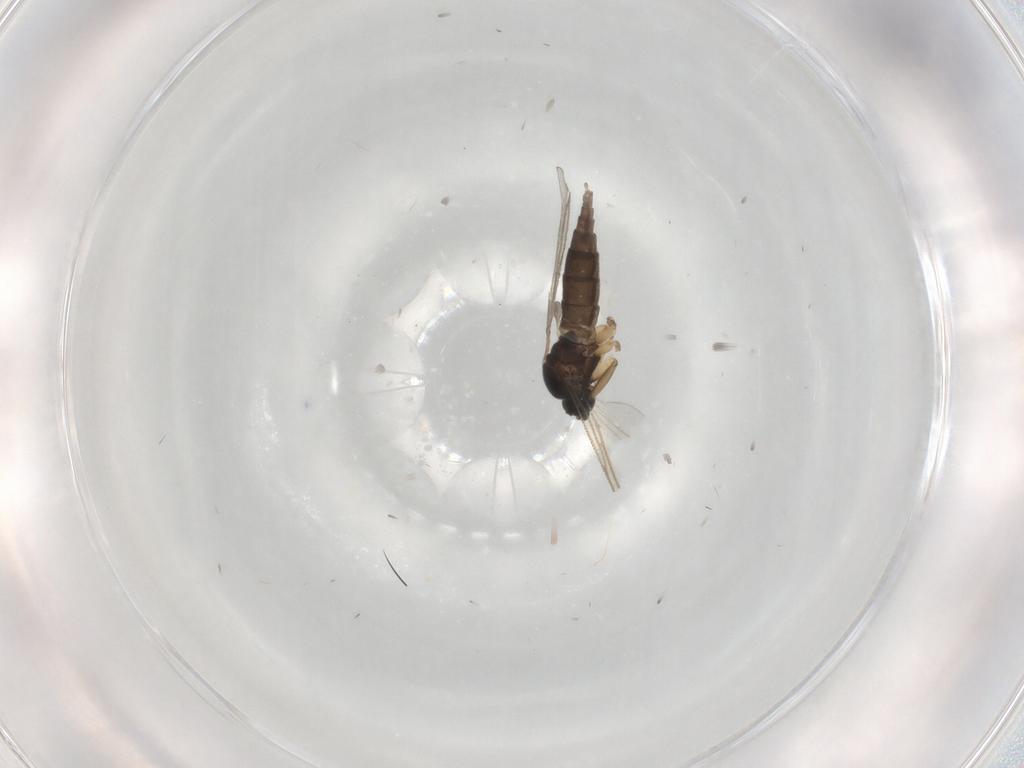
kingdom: Animalia
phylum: Arthropoda
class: Insecta
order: Diptera
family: Sciaridae
